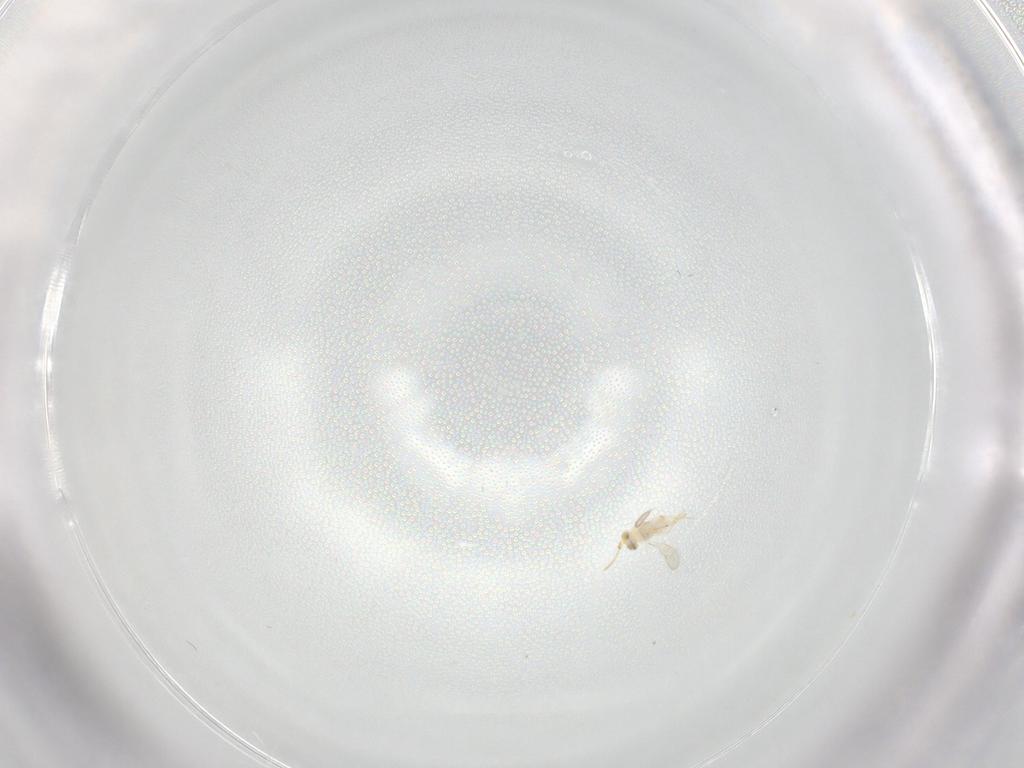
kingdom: Animalia
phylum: Arthropoda
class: Insecta
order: Hymenoptera
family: Aphelinidae
